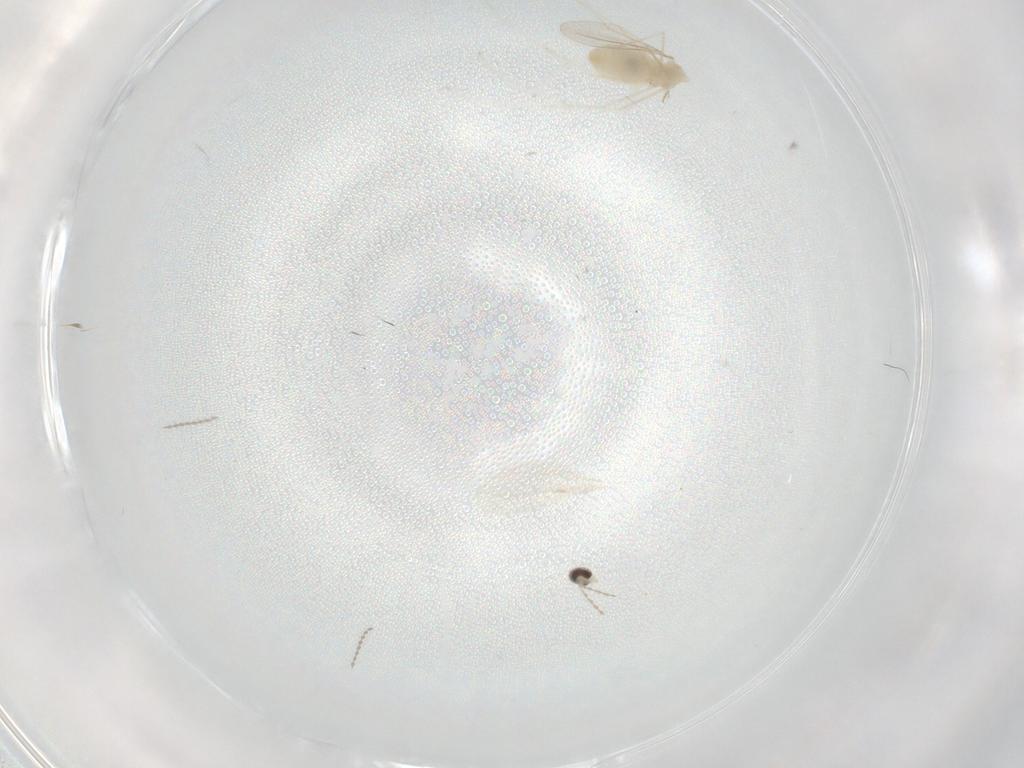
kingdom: Animalia
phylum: Arthropoda
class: Insecta
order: Diptera
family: Cecidomyiidae
